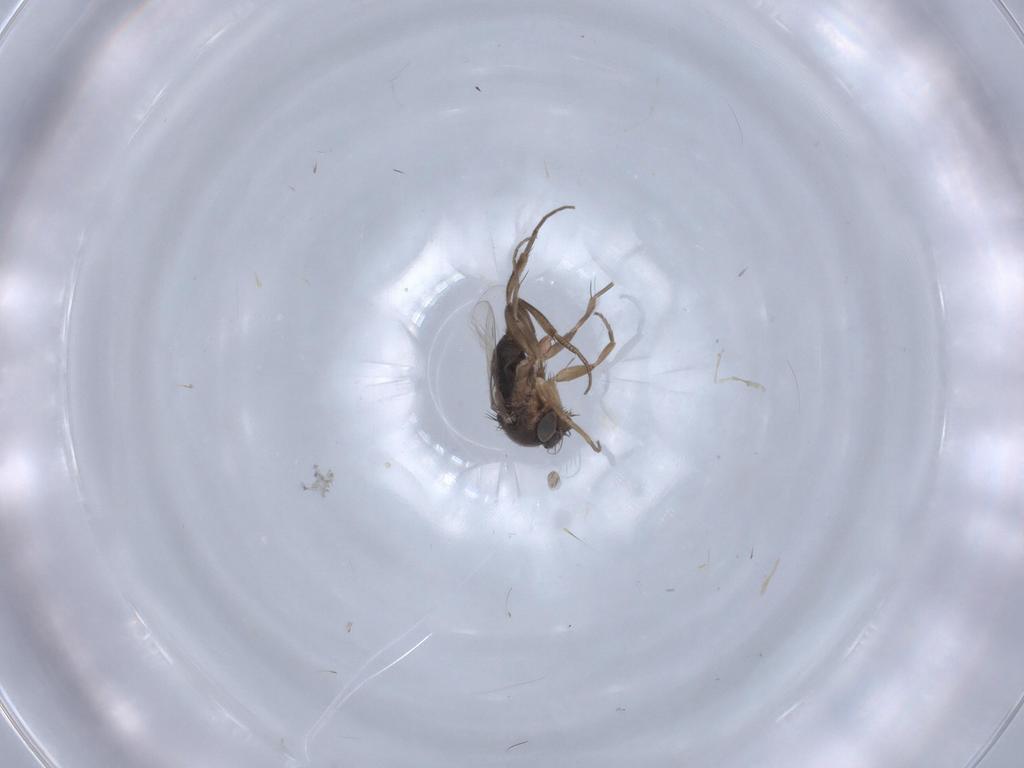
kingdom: Animalia
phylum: Arthropoda
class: Insecta
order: Diptera
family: Phoridae
